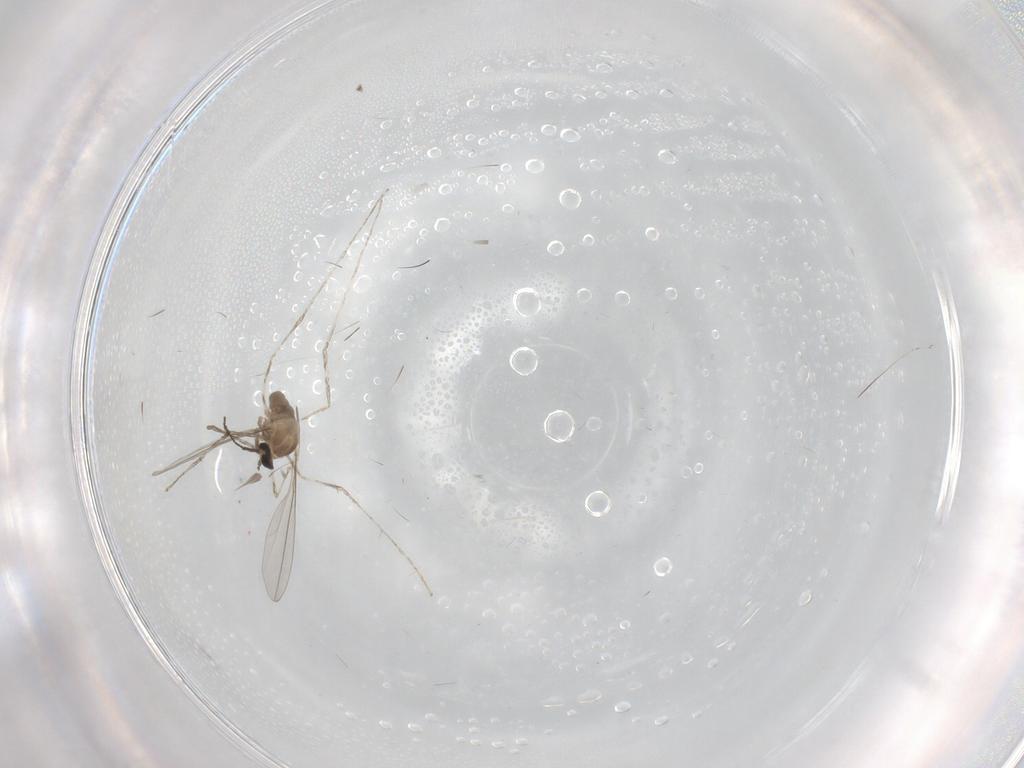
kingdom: Animalia
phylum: Arthropoda
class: Insecta
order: Diptera
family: Cecidomyiidae
